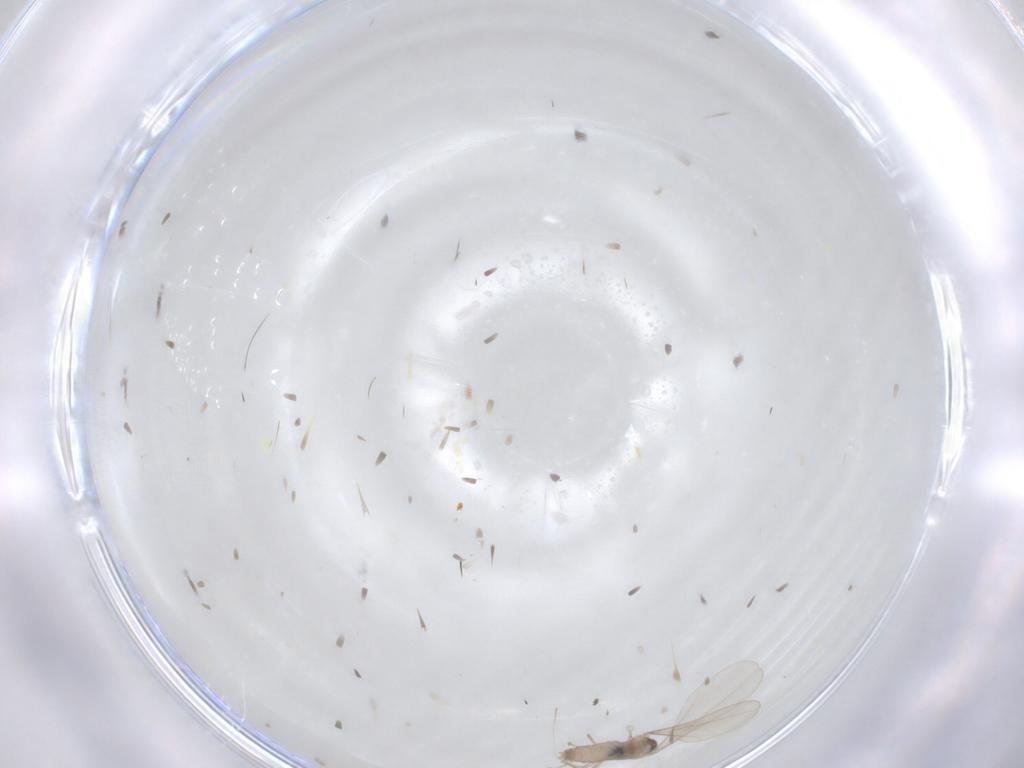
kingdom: Animalia
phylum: Arthropoda
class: Insecta
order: Diptera
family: Cecidomyiidae
